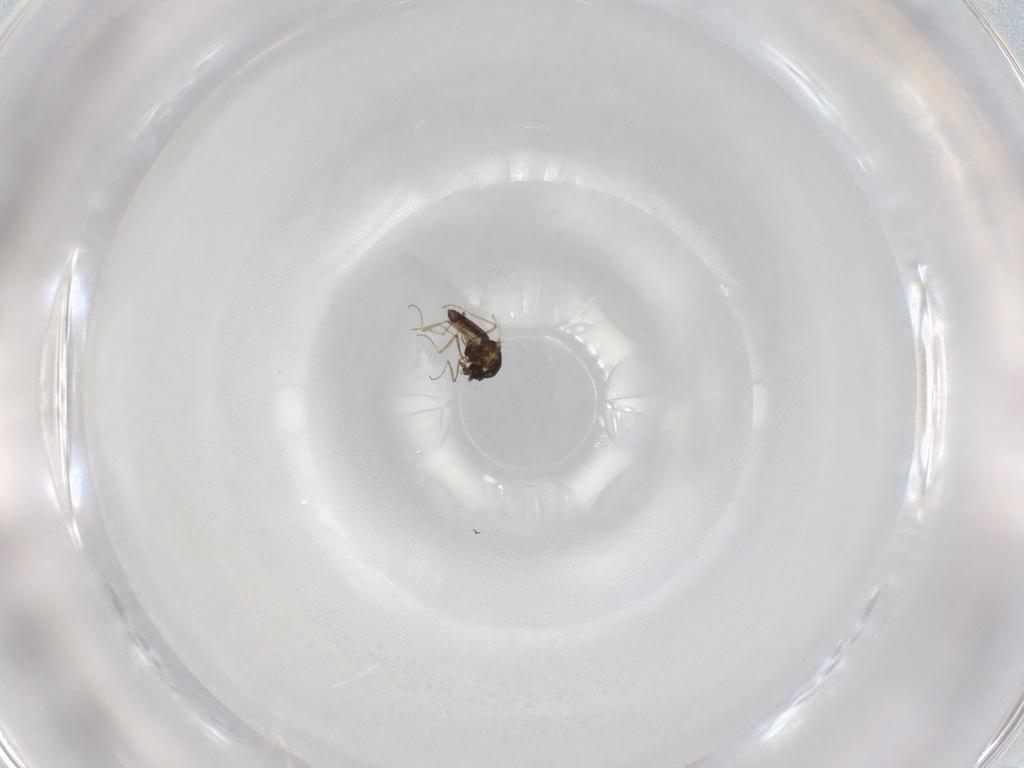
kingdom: Animalia
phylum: Arthropoda
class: Insecta
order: Diptera
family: Ceratopogonidae
